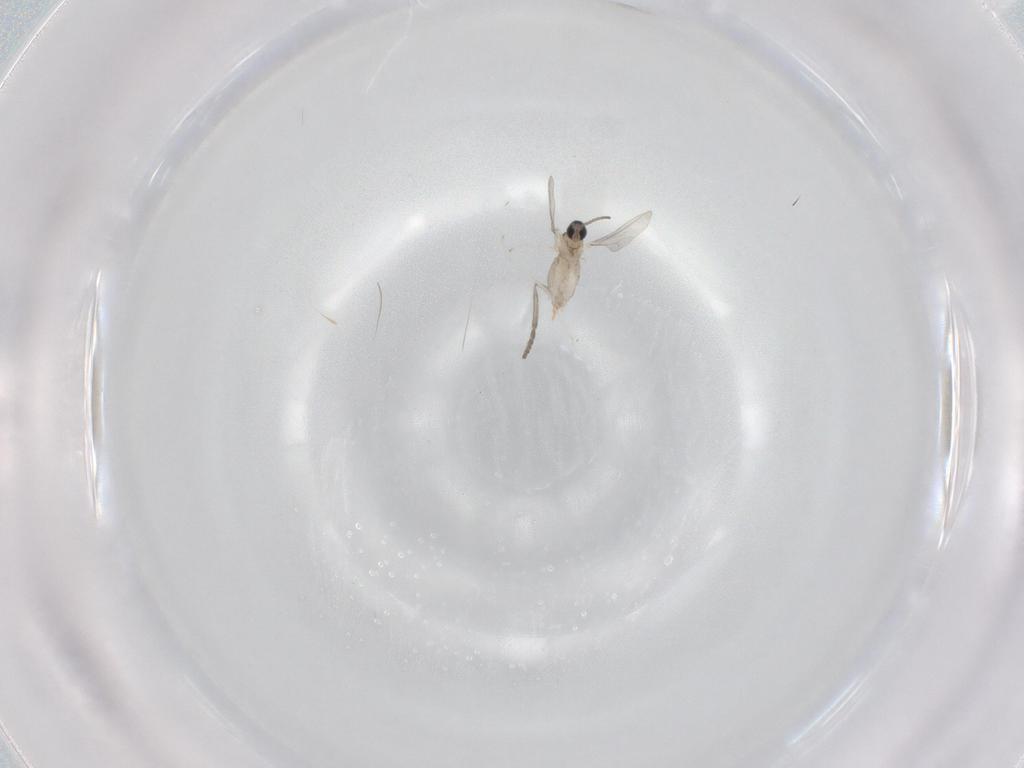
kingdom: Animalia
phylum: Arthropoda
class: Insecta
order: Diptera
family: Cecidomyiidae
